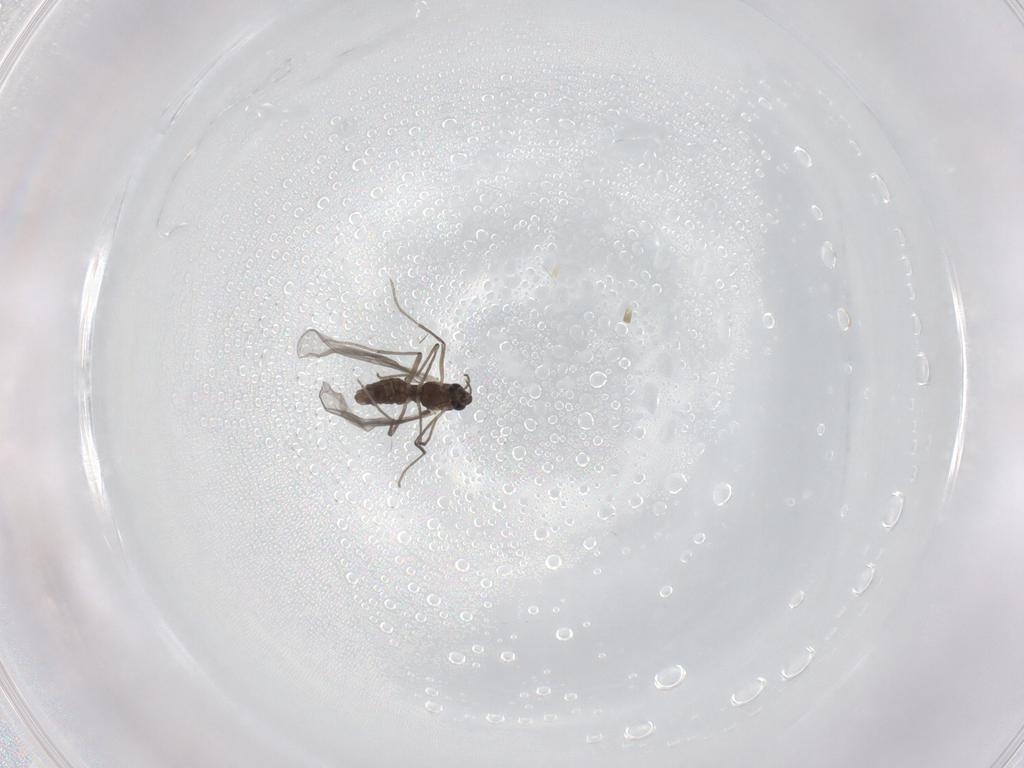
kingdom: Animalia
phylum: Arthropoda
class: Insecta
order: Diptera
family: Chironomidae
